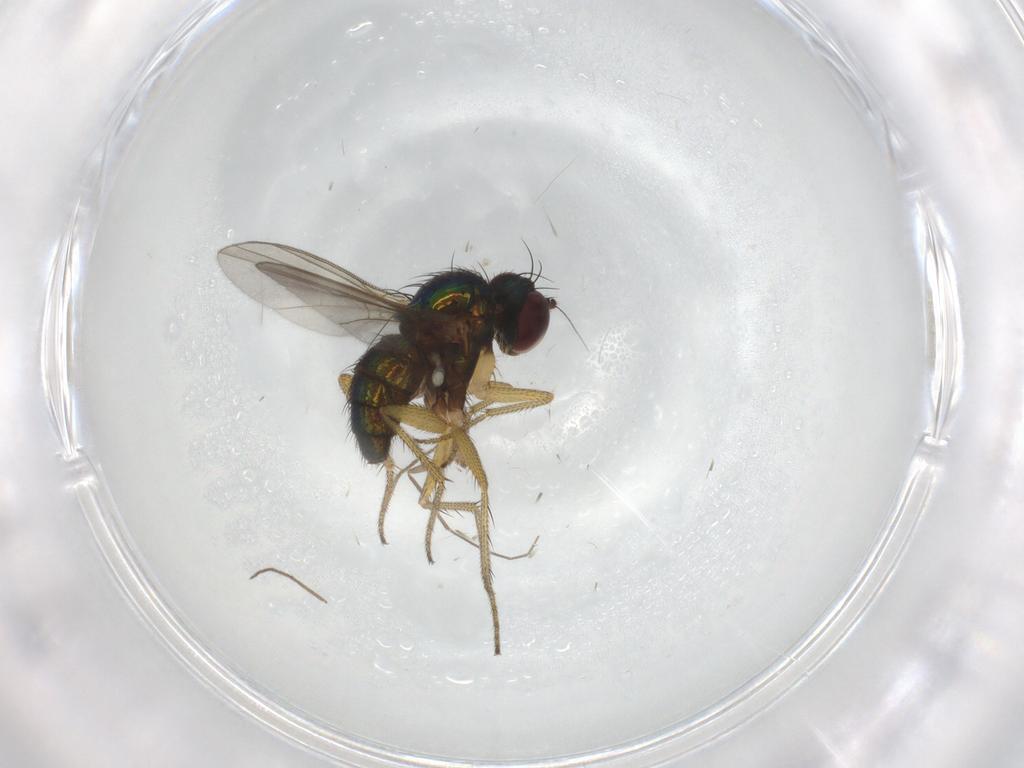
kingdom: Animalia
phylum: Arthropoda
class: Insecta
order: Diptera
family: Dolichopodidae
